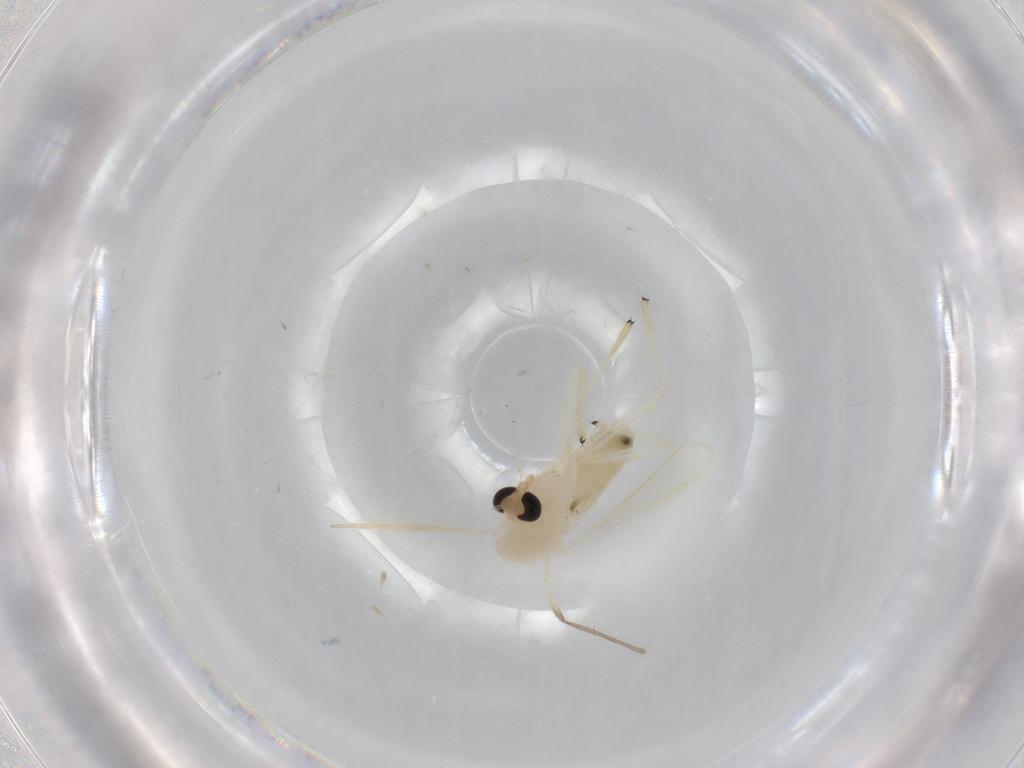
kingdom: Animalia
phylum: Arthropoda
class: Insecta
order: Diptera
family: Chironomidae
